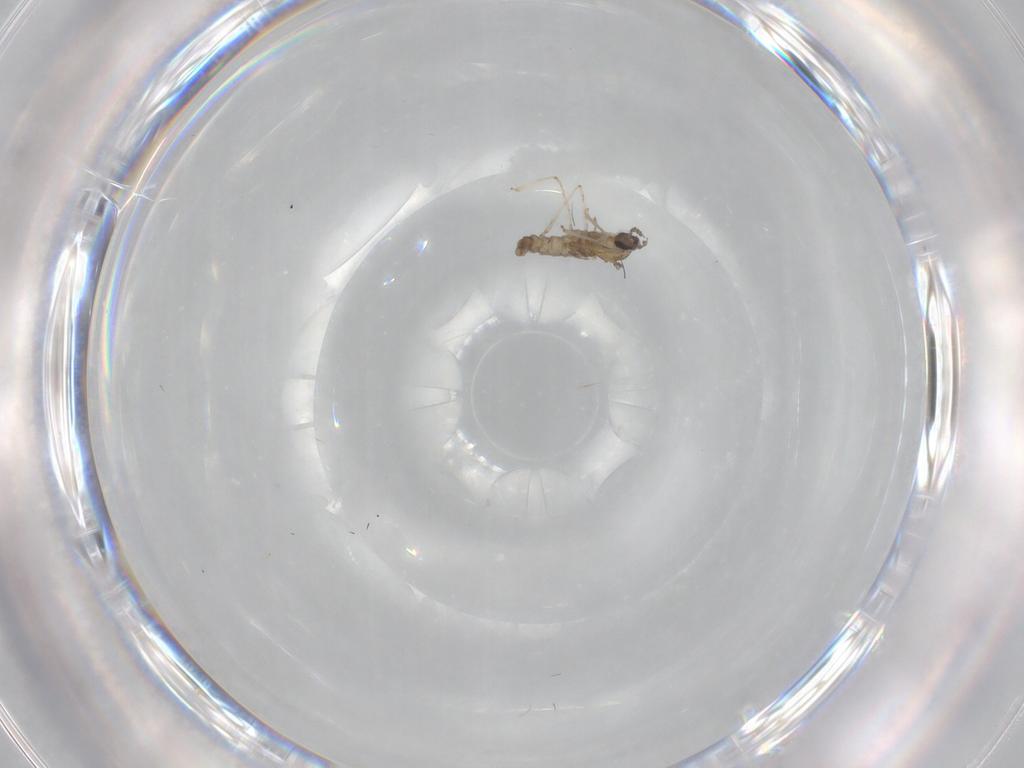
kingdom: Animalia
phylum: Arthropoda
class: Insecta
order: Diptera
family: Cecidomyiidae
